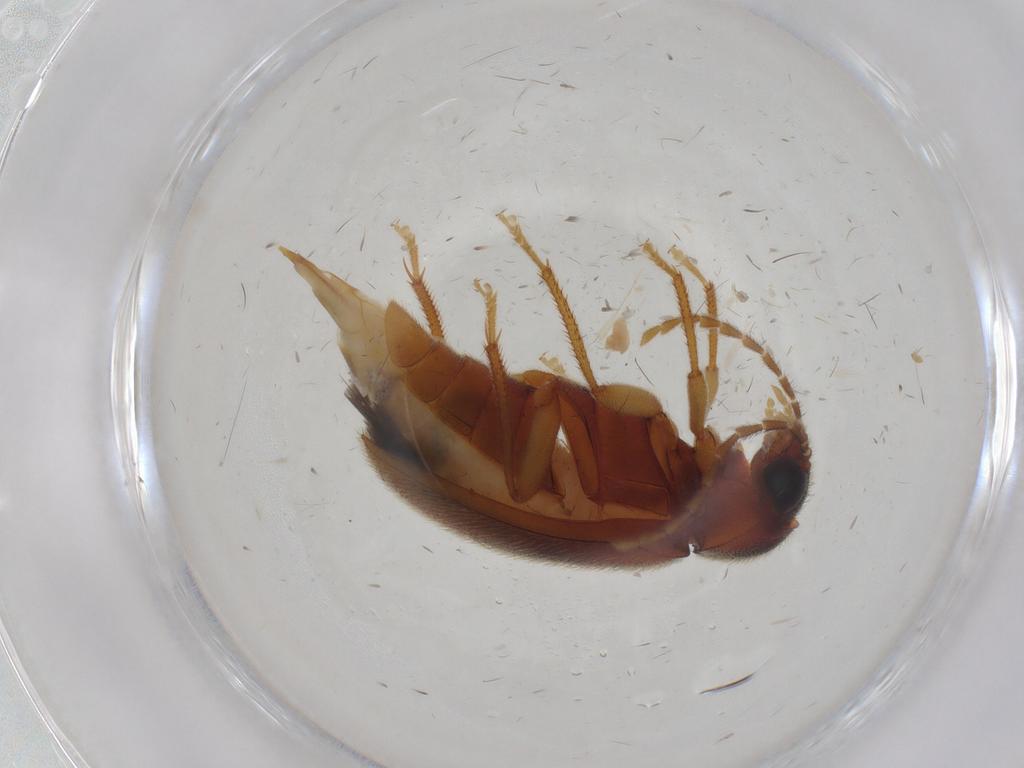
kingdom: Animalia
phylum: Arthropoda
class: Insecta
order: Coleoptera
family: Ptilodactylidae
